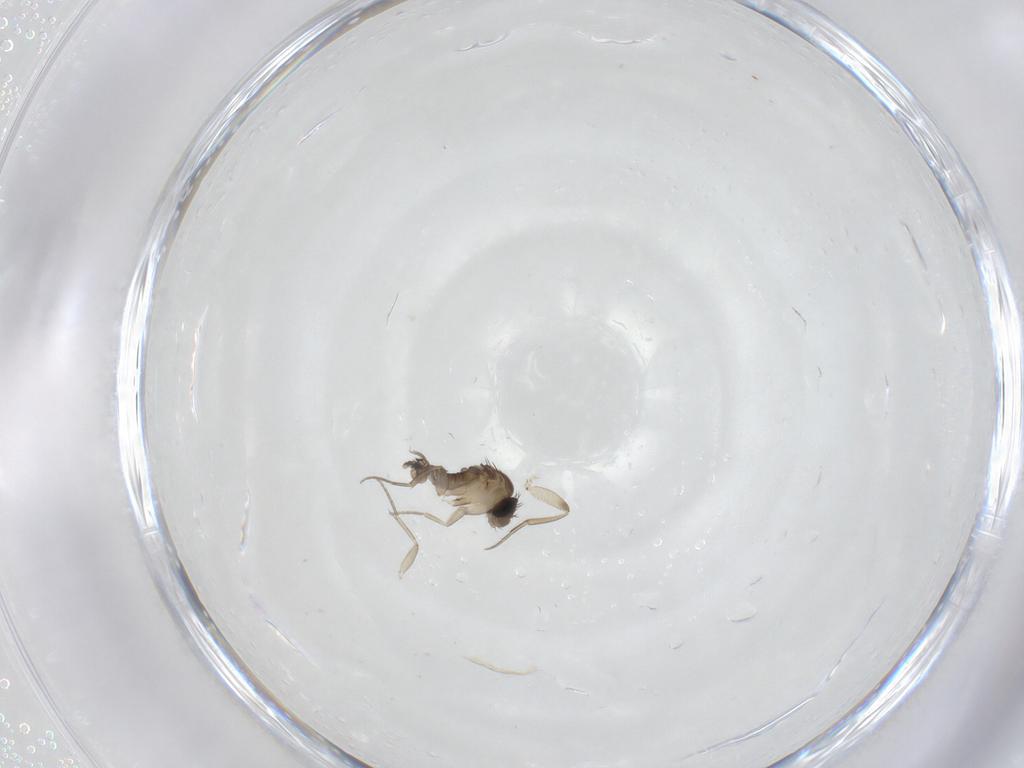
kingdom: Animalia
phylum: Arthropoda
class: Insecta
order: Diptera
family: Phoridae
